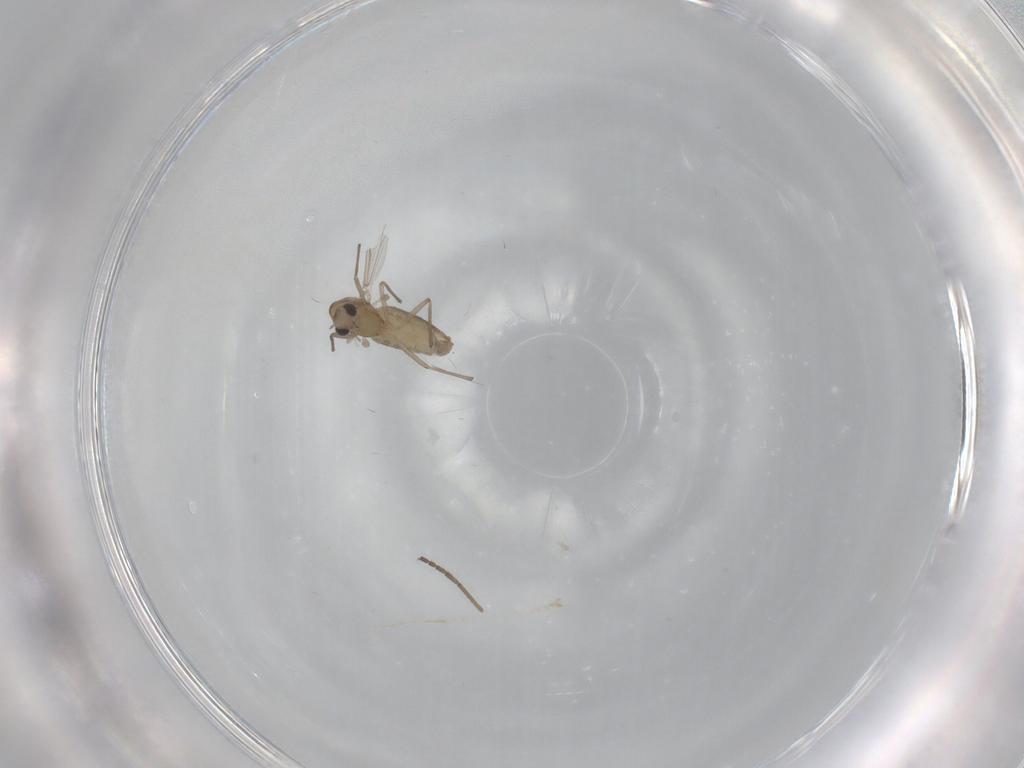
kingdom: Animalia
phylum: Arthropoda
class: Insecta
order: Diptera
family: Chironomidae
